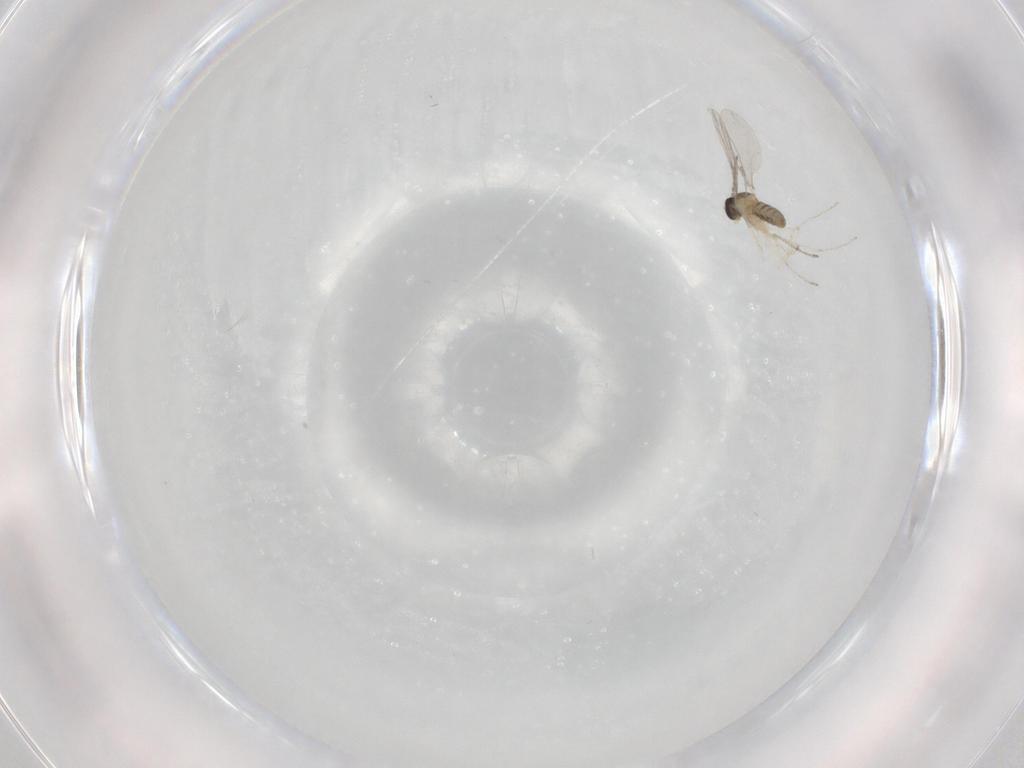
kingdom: Animalia
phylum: Arthropoda
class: Insecta
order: Diptera
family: Cecidomyiidae
